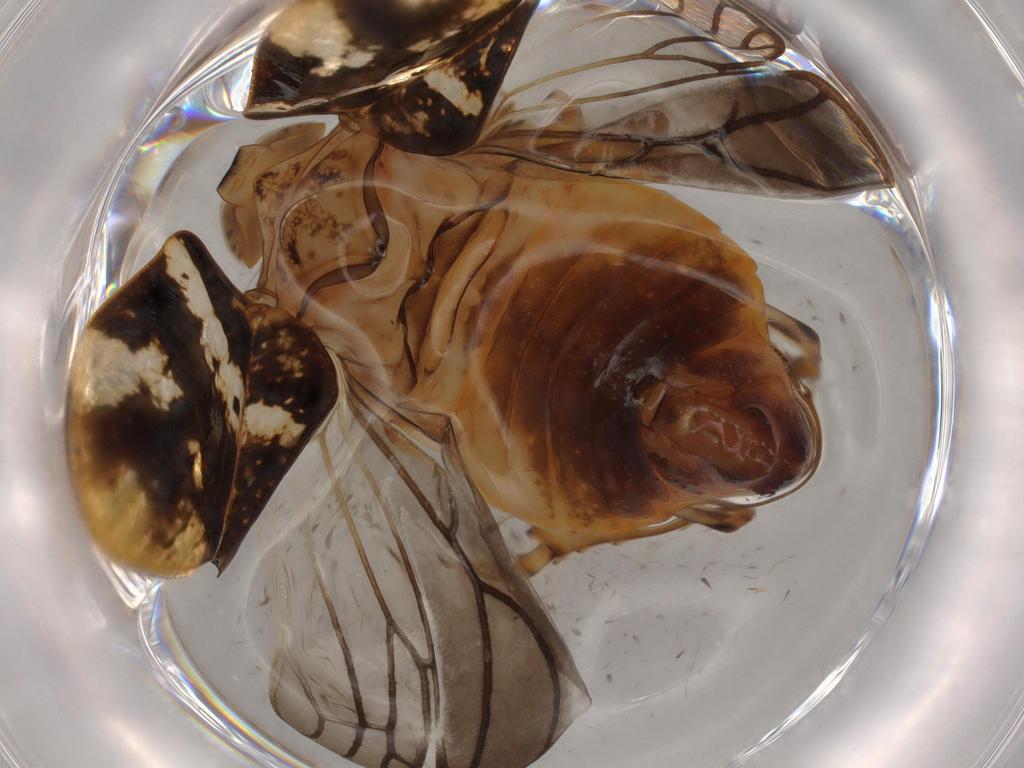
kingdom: Animalia
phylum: Arthropoda
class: Insecta
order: Hemiptera
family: Issidae
